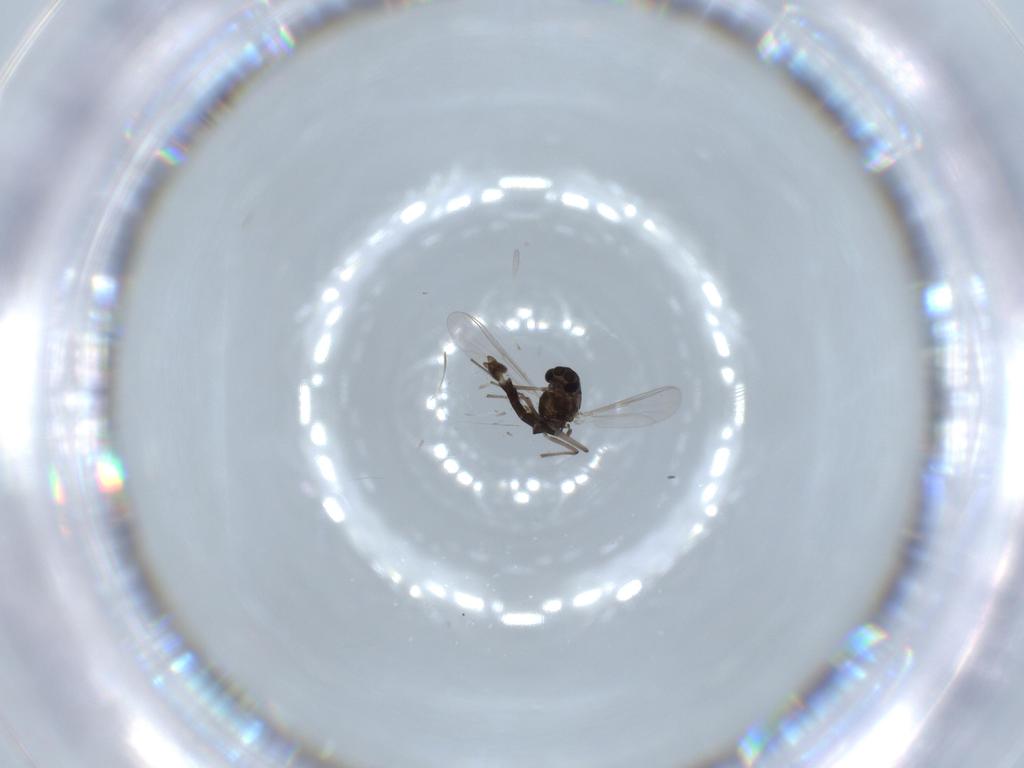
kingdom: Animalia
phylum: Arthropoda
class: Insecta
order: Diptera
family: Chironomidae
